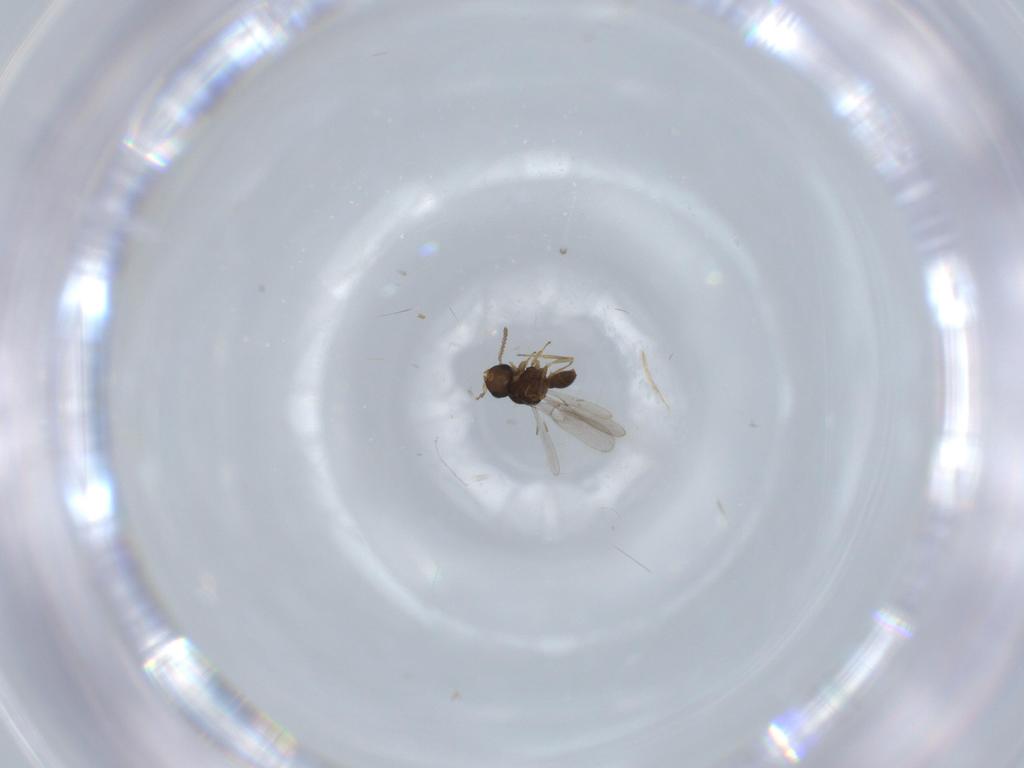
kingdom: Animalia
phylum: Arthropoda
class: Insecta
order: Hymenoptera
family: Scelionidae
